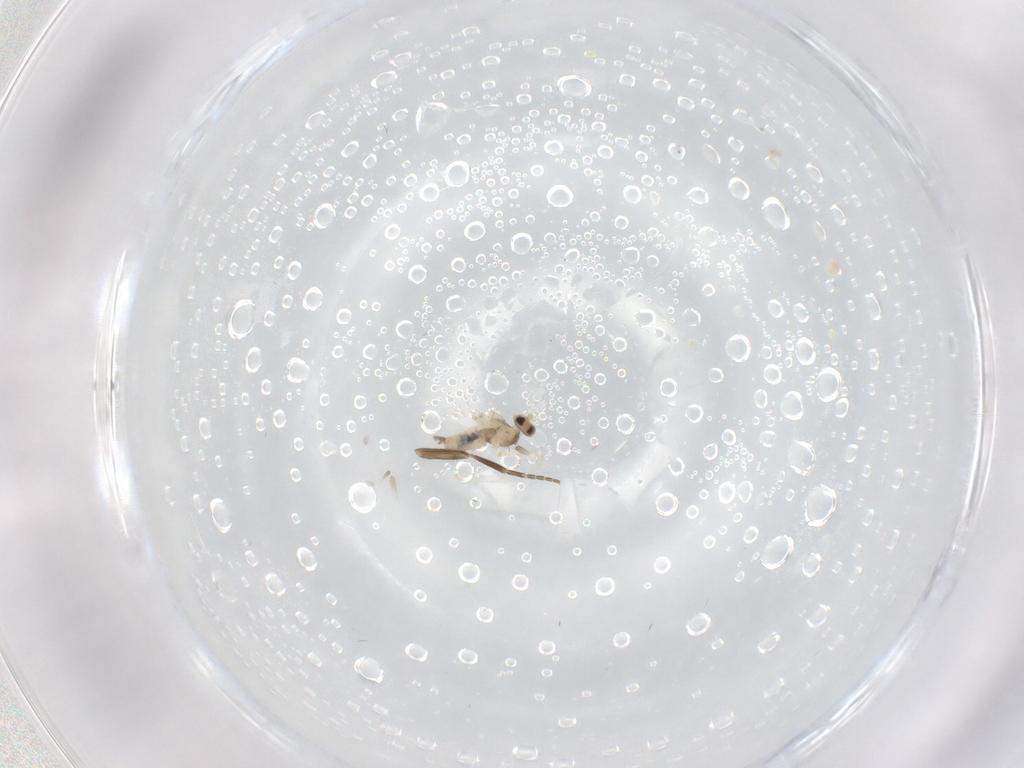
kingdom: Animalia
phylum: Arthropoda
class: Insecta
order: Diptera
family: Cecidomyiidae
